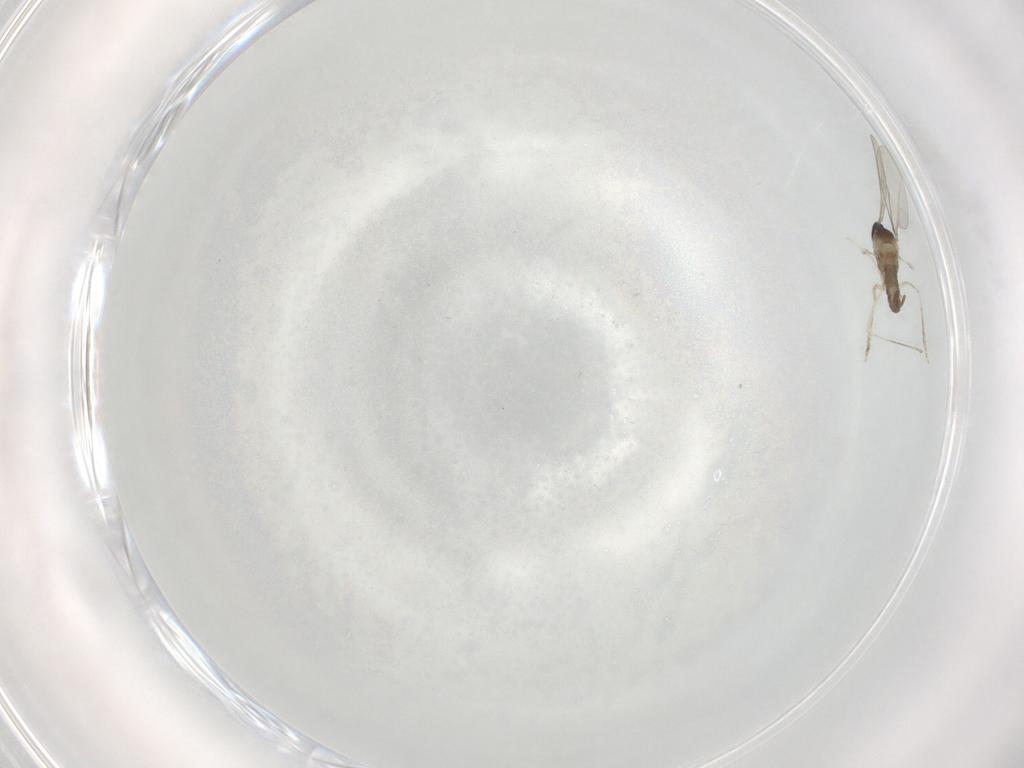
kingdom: Animalia
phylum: Arthropoda
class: Insecta
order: Diptera
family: Cecidomyiidae
